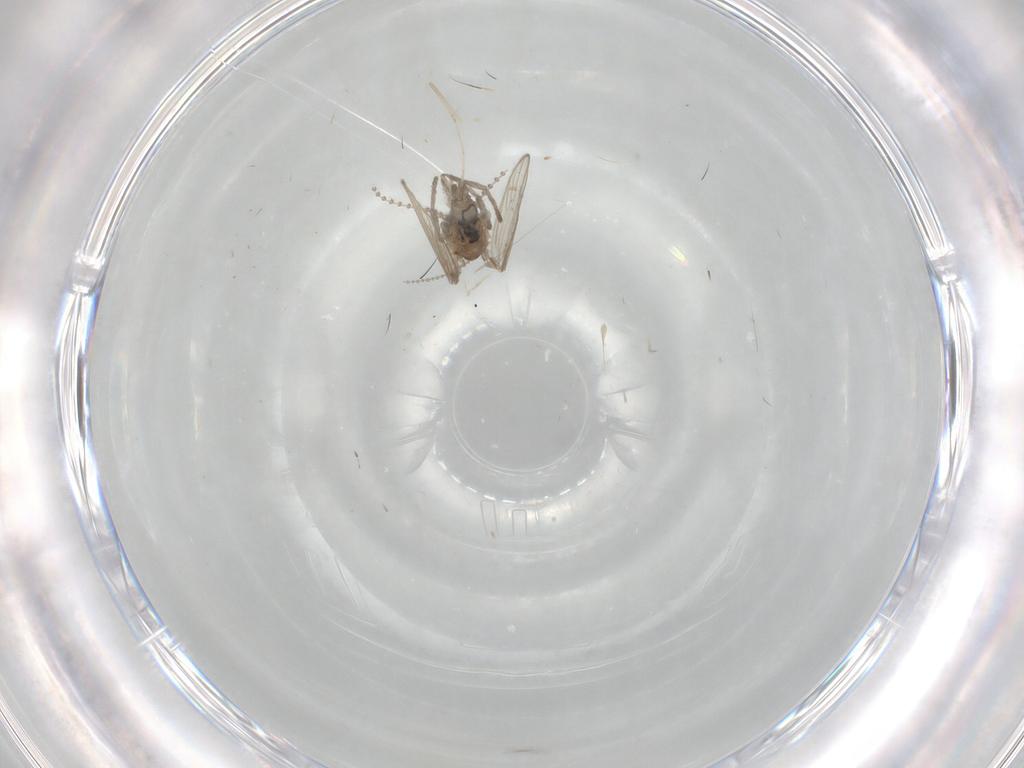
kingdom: Animalia
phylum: Arthropoda
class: Insecta
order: Diptera
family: Psychodidae
